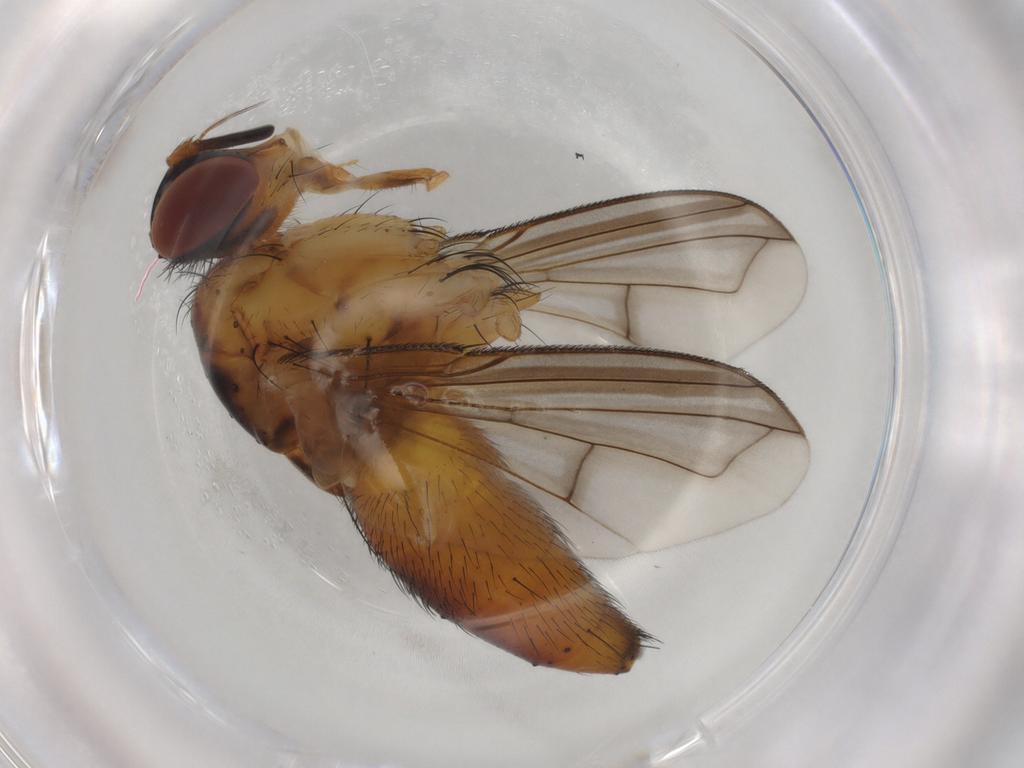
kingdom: Animalia
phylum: Arthropoda
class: Insecta
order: Diptera
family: Tachinidae
